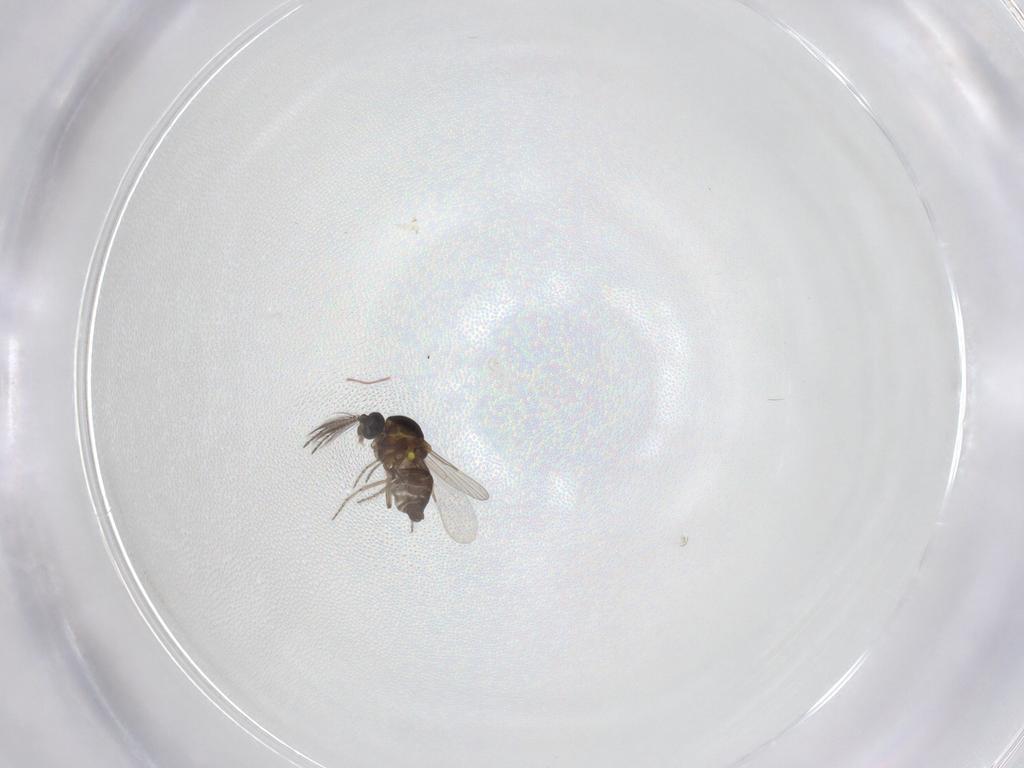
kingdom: Animalia
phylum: Arthropoda
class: Insecta
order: Diptera
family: Ceratopogonidae
